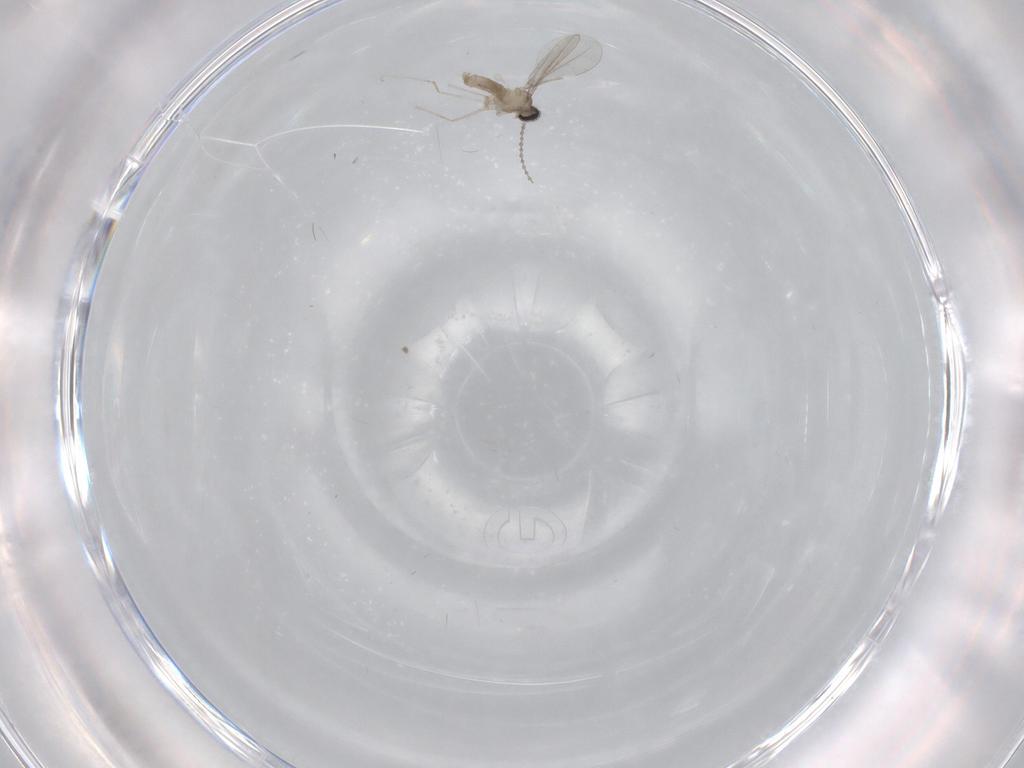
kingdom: Animalia
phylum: Arthropoda
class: Insecta
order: Diptera
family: Cecidomyiidae
